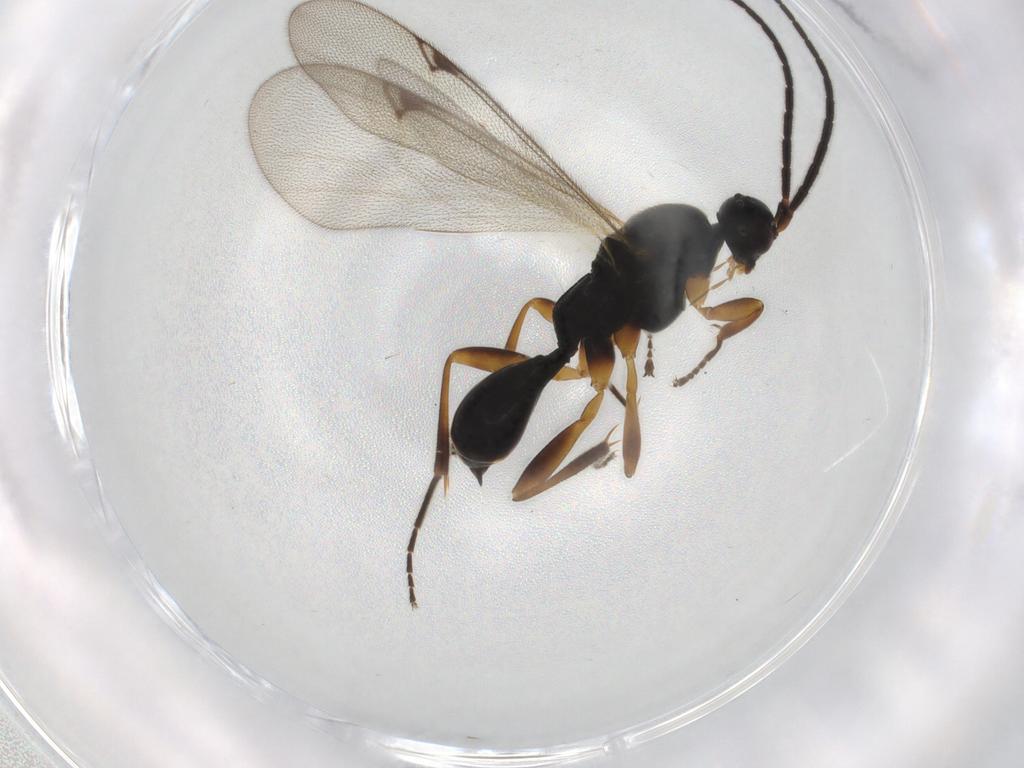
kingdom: Animalia
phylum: Arthropoda
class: Insecta
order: Hymenoptera
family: Proctotrupidae
